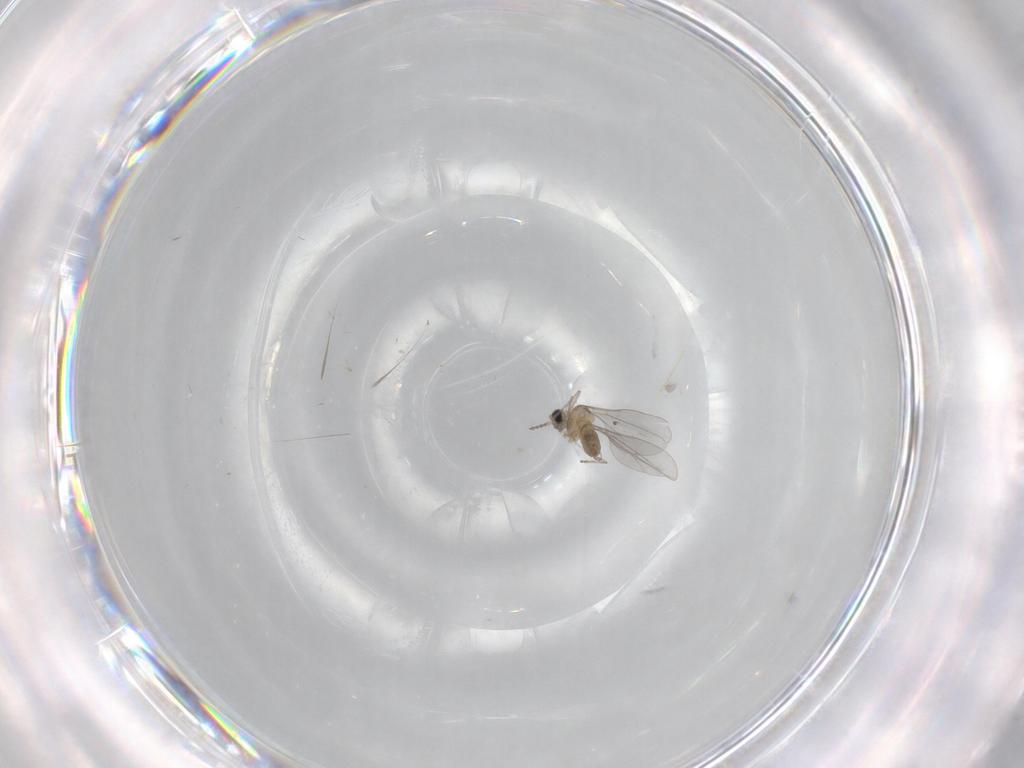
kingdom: Animalia
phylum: Arthropoda
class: Insecta
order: Diptera
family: Cecidomyiidae
